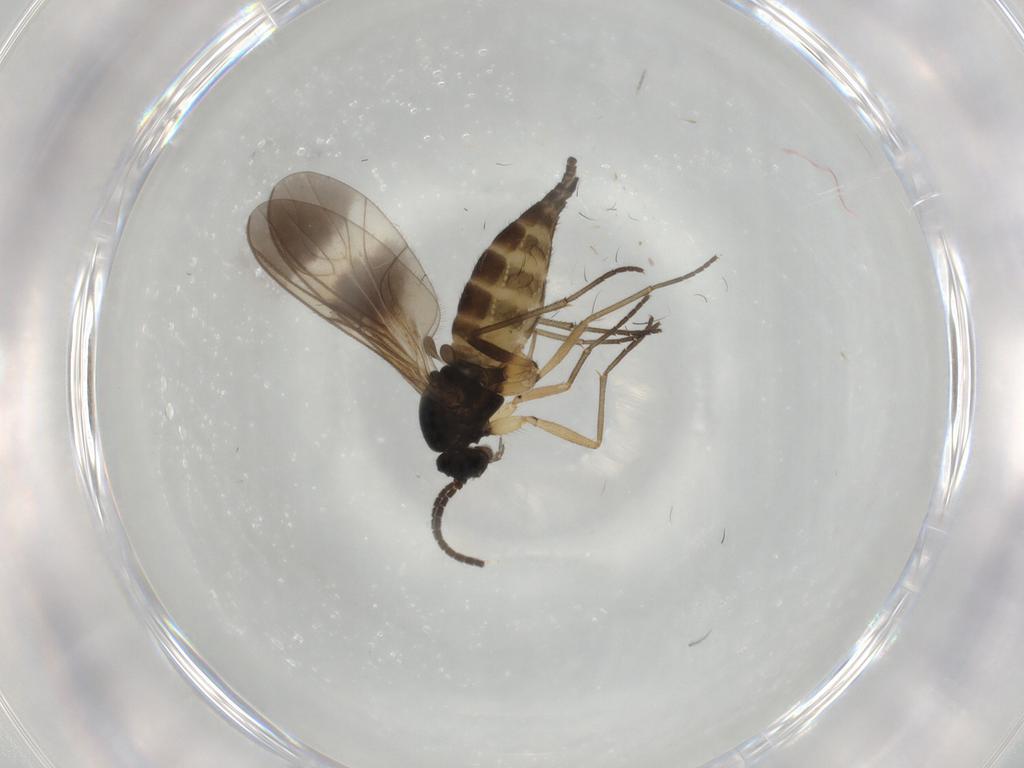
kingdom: Animalia
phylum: Arthropoda
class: Insecta
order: Diptera
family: Sciaridae
